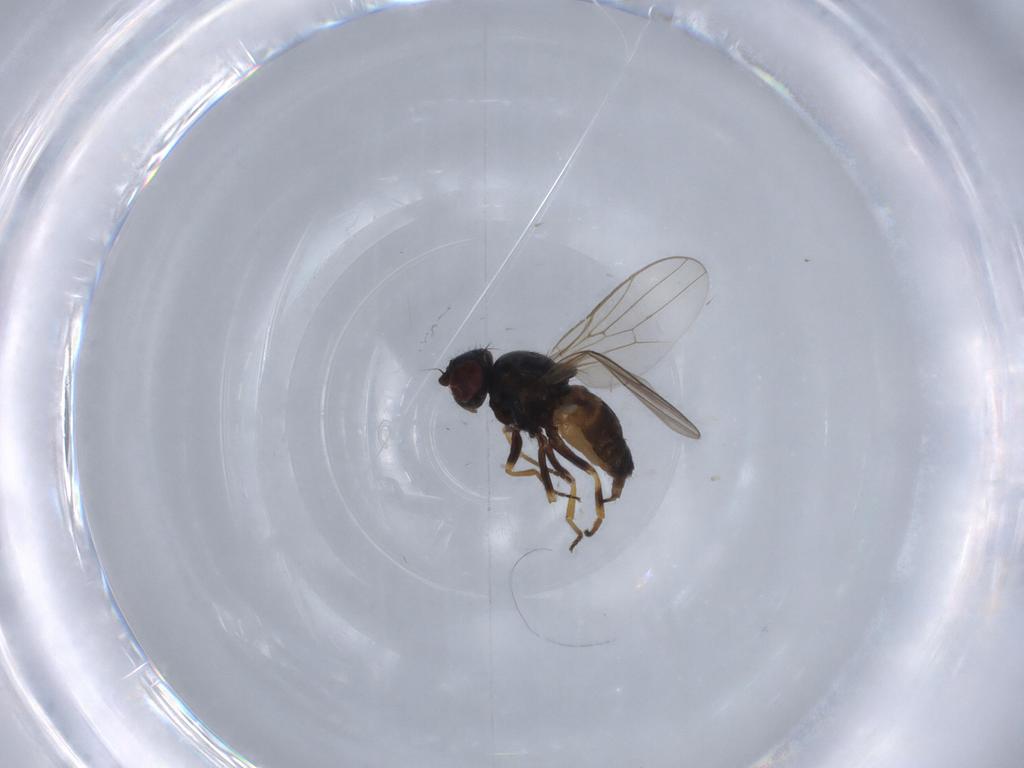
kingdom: Animalia
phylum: Arthropoda
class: Insecta
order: Diptera
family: Chloropidae
